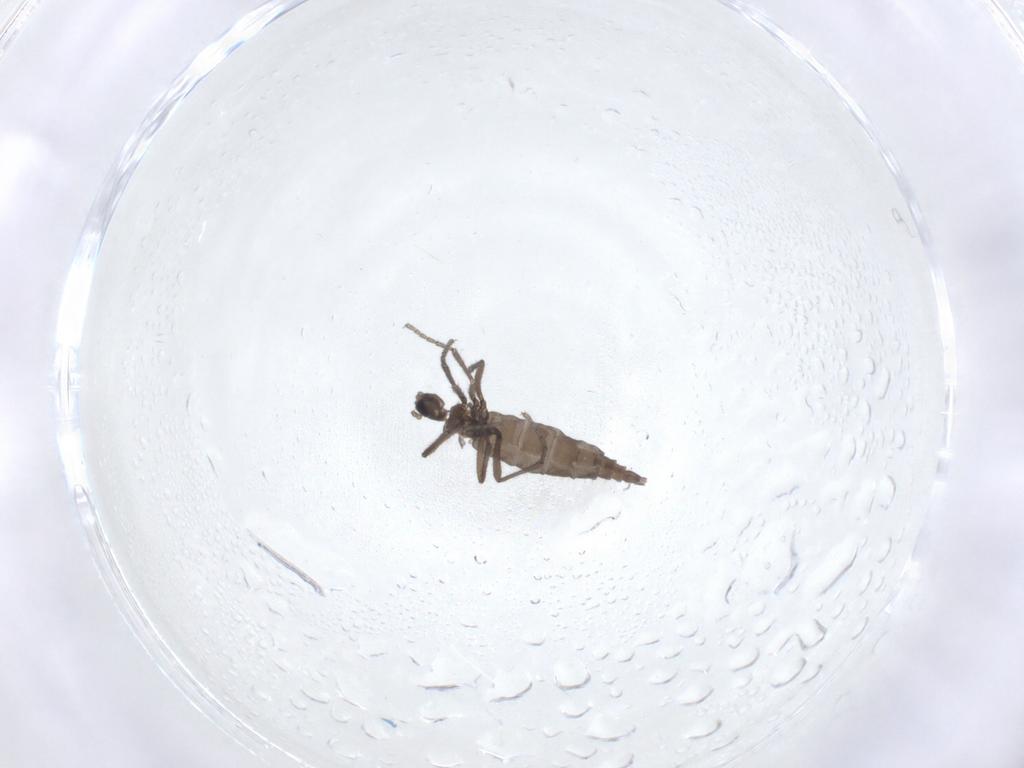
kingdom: Animalia
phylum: Arthropoda
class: Insecta
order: Diptera
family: Sciaridae
